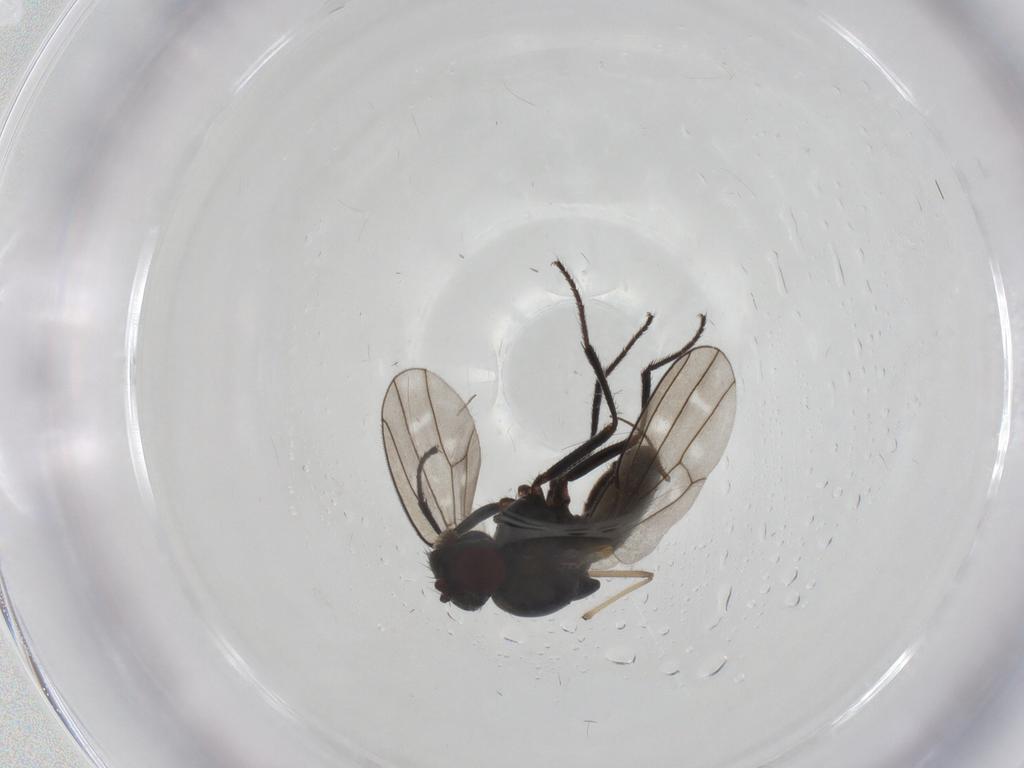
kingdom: Animalia
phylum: Arthropoda
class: Insecta
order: Diptera
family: Ephydridae
